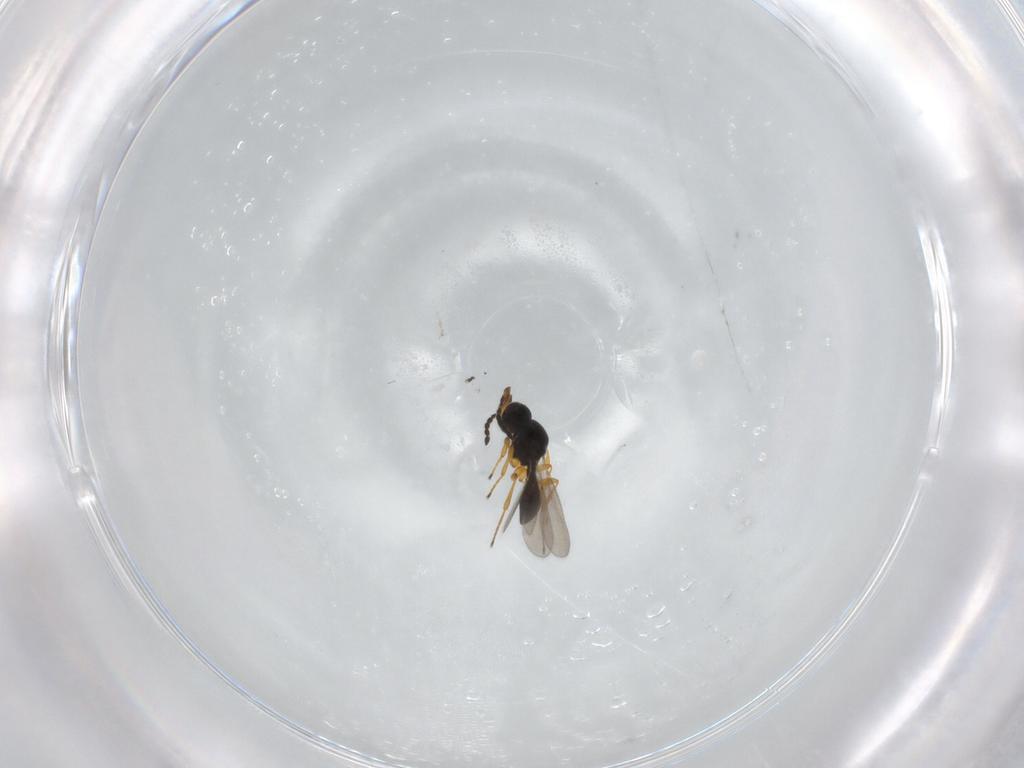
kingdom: Animalia
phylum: Arthropoda
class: Insecta
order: Hymenoptera
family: Platygastridae
